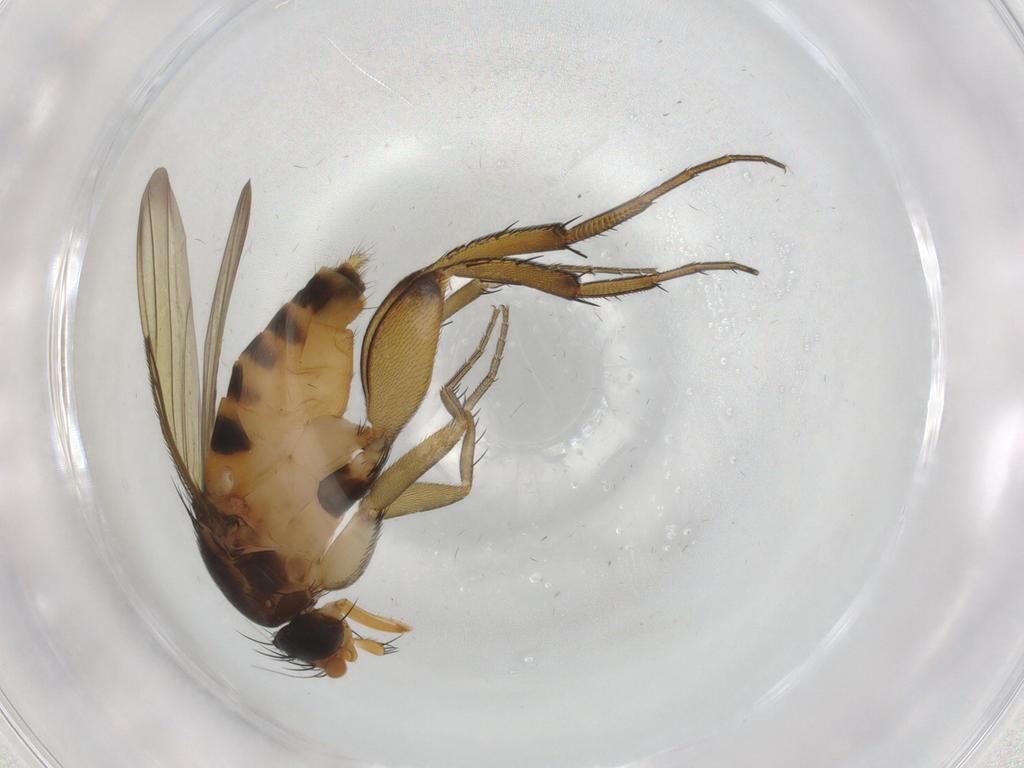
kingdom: Animalia
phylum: Arthropoda
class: Insecta
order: Diptera
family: Phoridae
